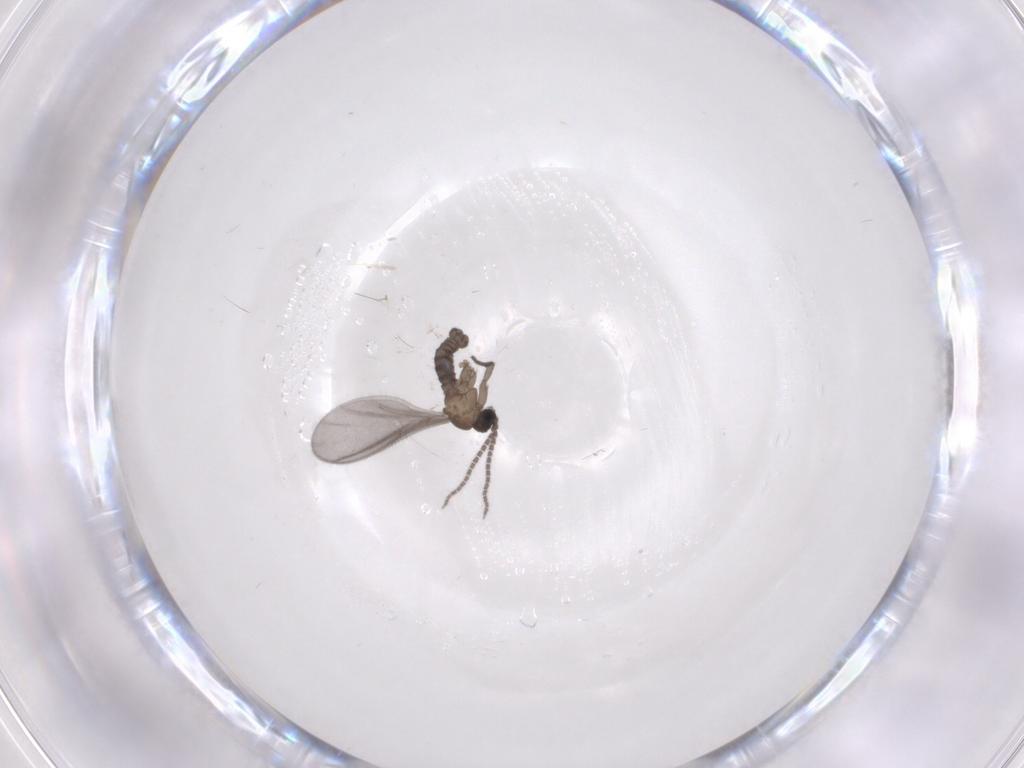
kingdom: Animalia
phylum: Arthropoda
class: Insecta
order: Diptera
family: Sciaridae
